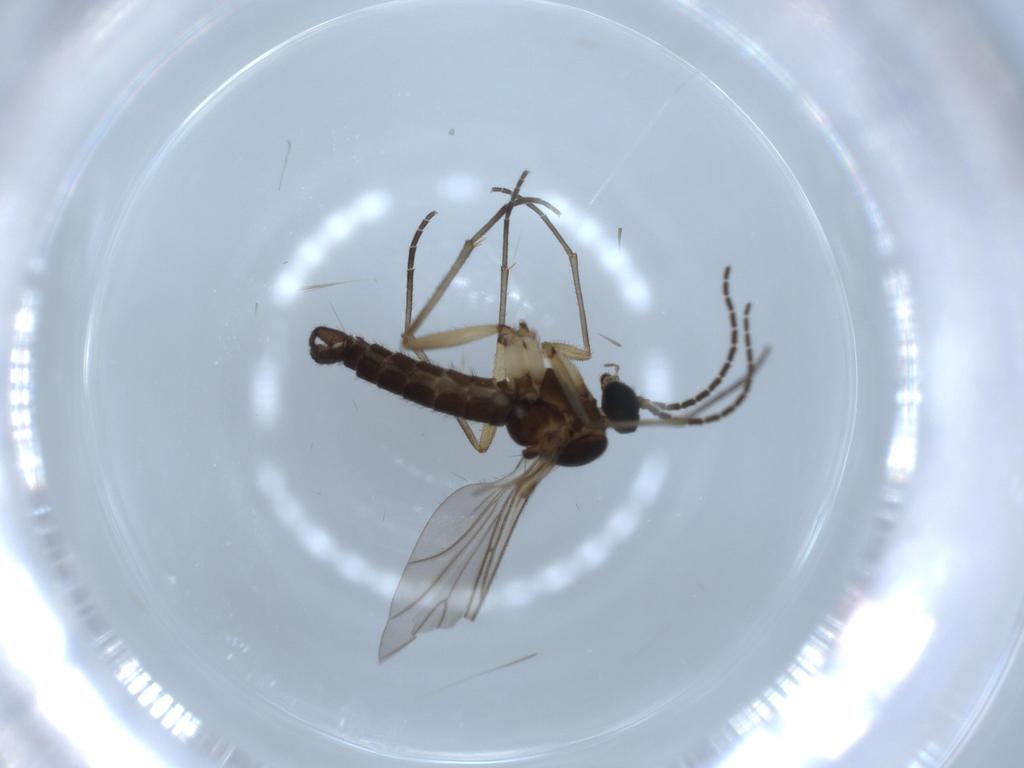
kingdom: Animalia
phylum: Arthropoda
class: Insecta
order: Diptera
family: Sciaridae
